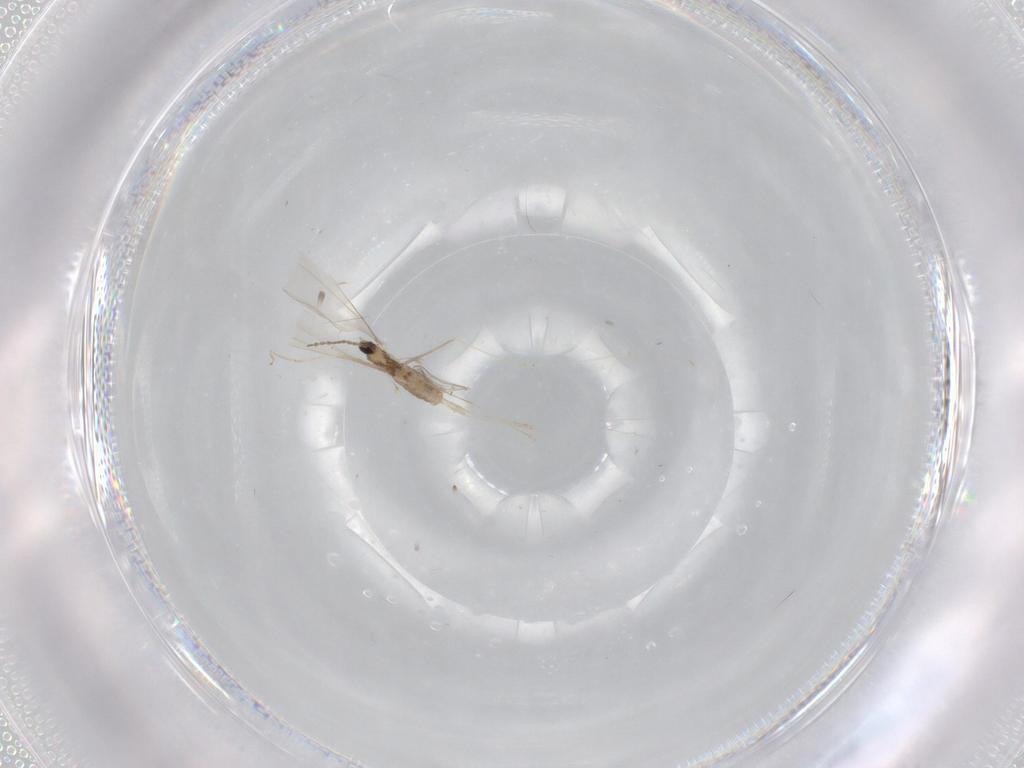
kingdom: Animalia
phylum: Arthropoda
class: Insecta
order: Diptera
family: Cecidomyiidae
